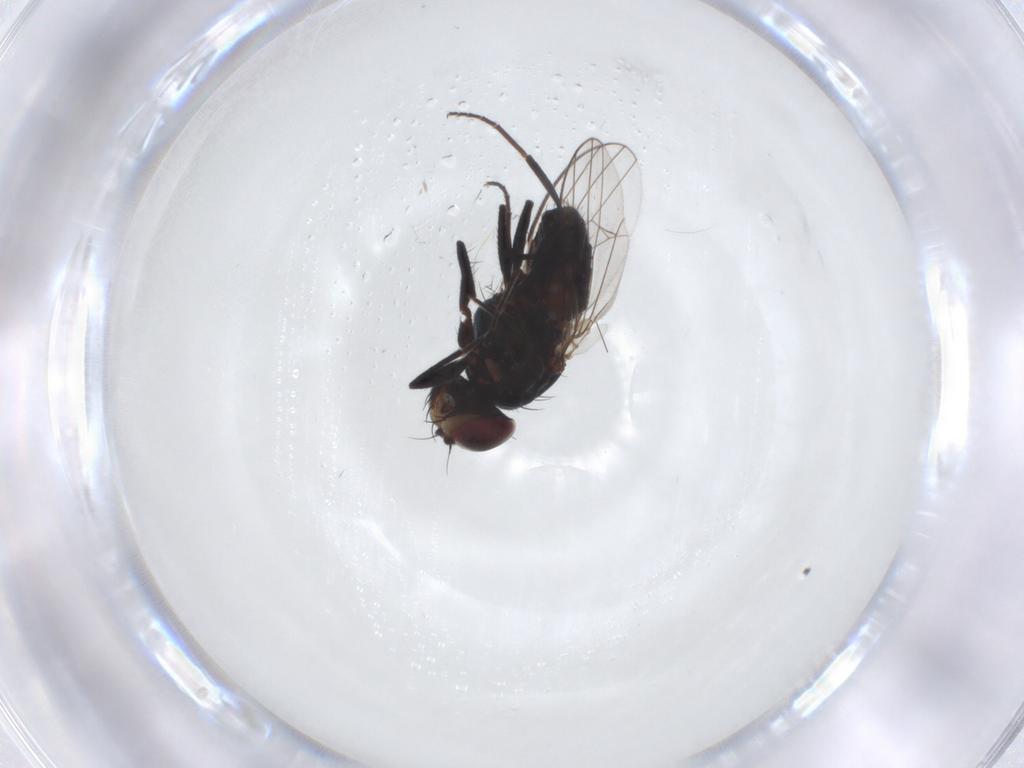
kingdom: Animalia
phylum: Arthropoda
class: Insecta
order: Diptera
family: Carnidae
